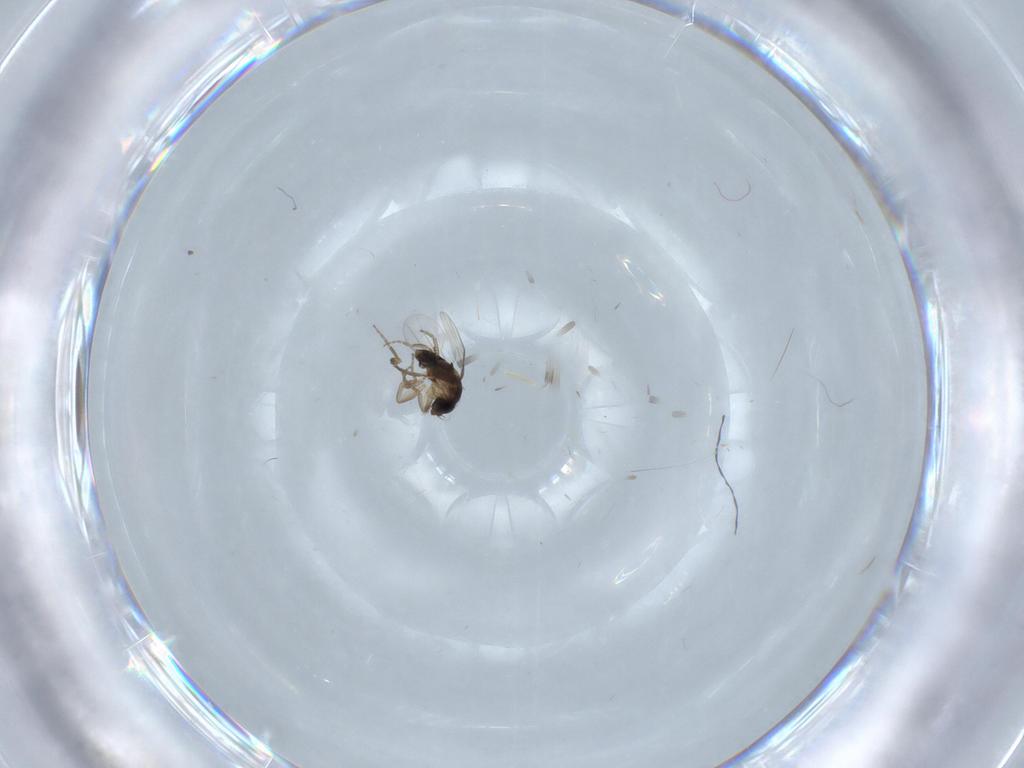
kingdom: Animalia
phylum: Arthropoda
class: Insecta
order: Diptera
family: Phoridae
